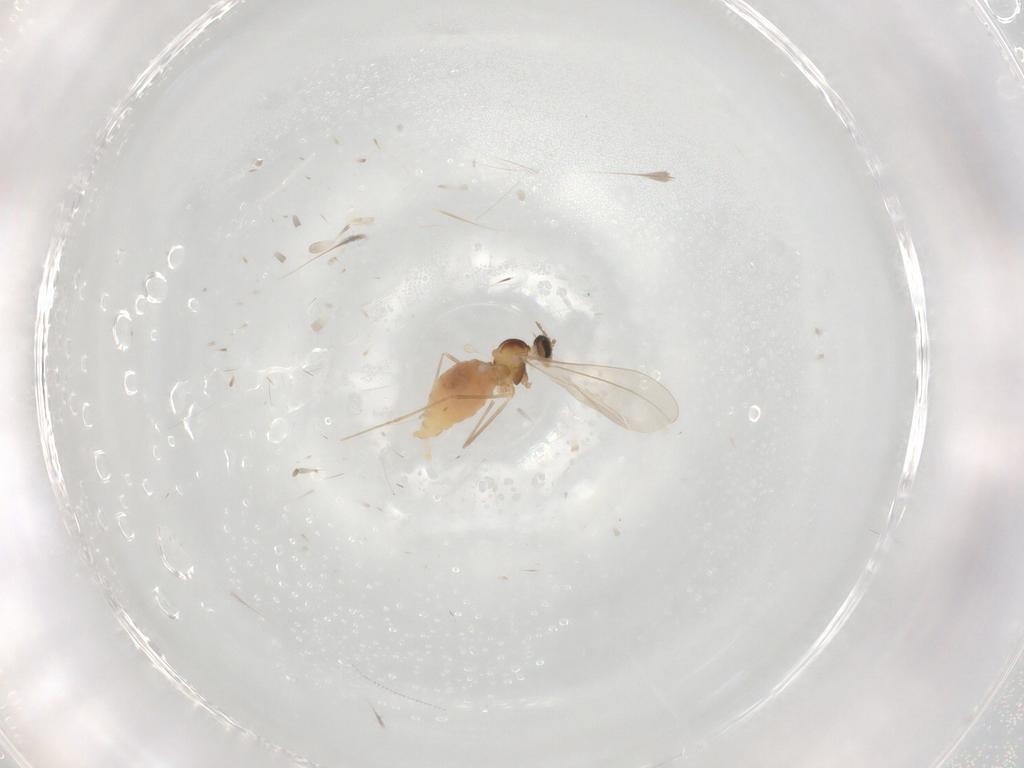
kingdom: Animalia
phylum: Arthropoda
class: Insecta
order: Diptera
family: Cecidomyiidae
